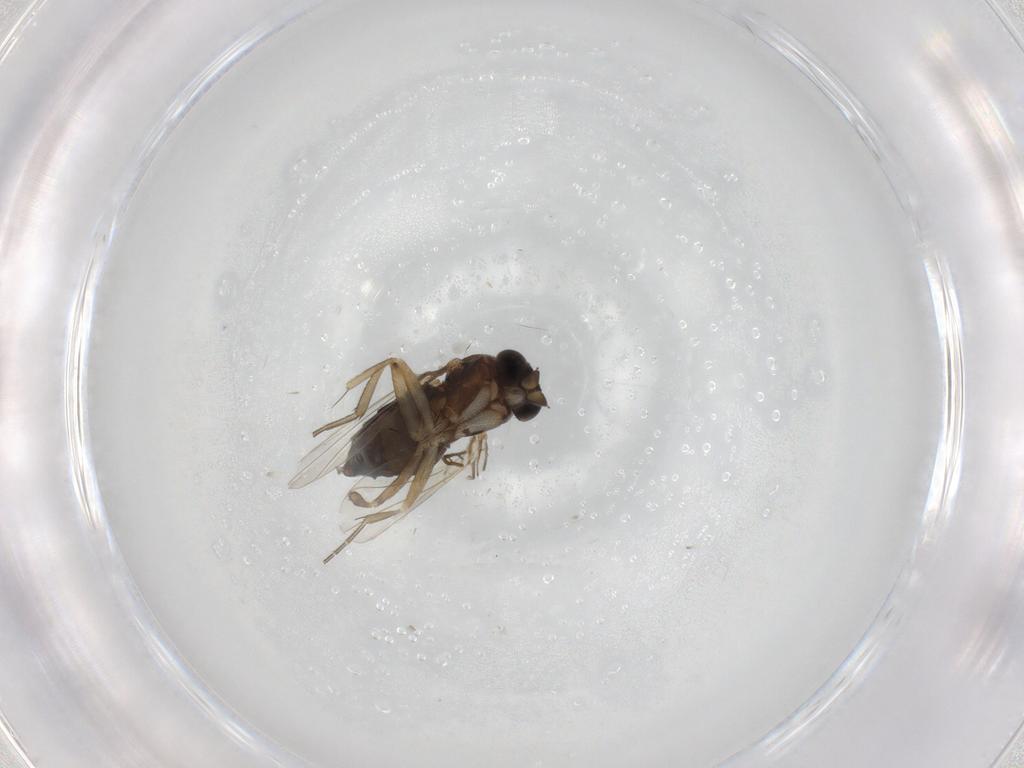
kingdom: Animalia
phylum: Arthropoda
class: Insecta
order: Diptera
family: Phoridae
